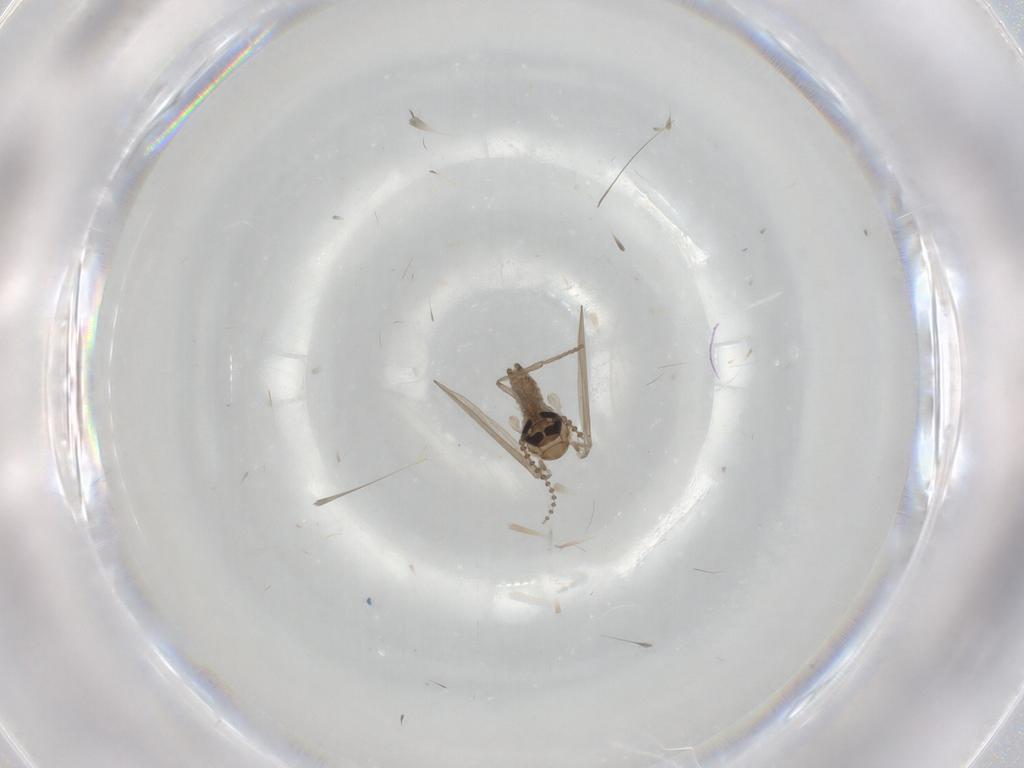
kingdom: Animalia
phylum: Arthropoda
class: Insecta
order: Diptera
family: Psychodidae
